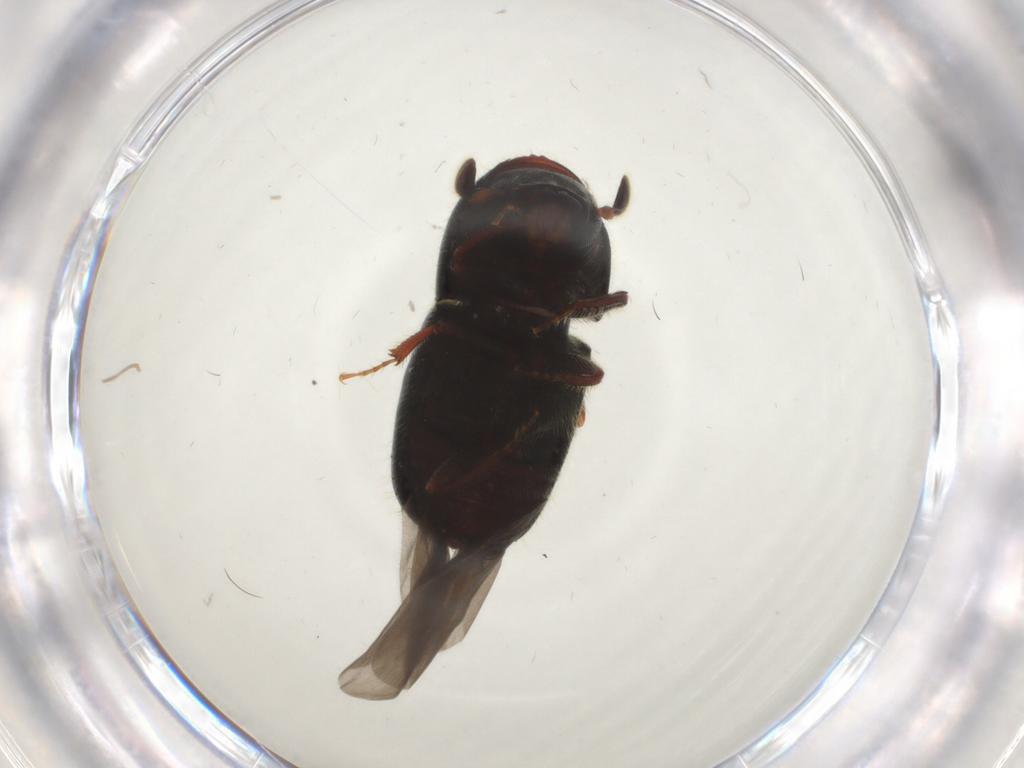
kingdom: Animalia
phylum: Arthropoda
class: Insecta
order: Coleoptera
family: Curculionidae
